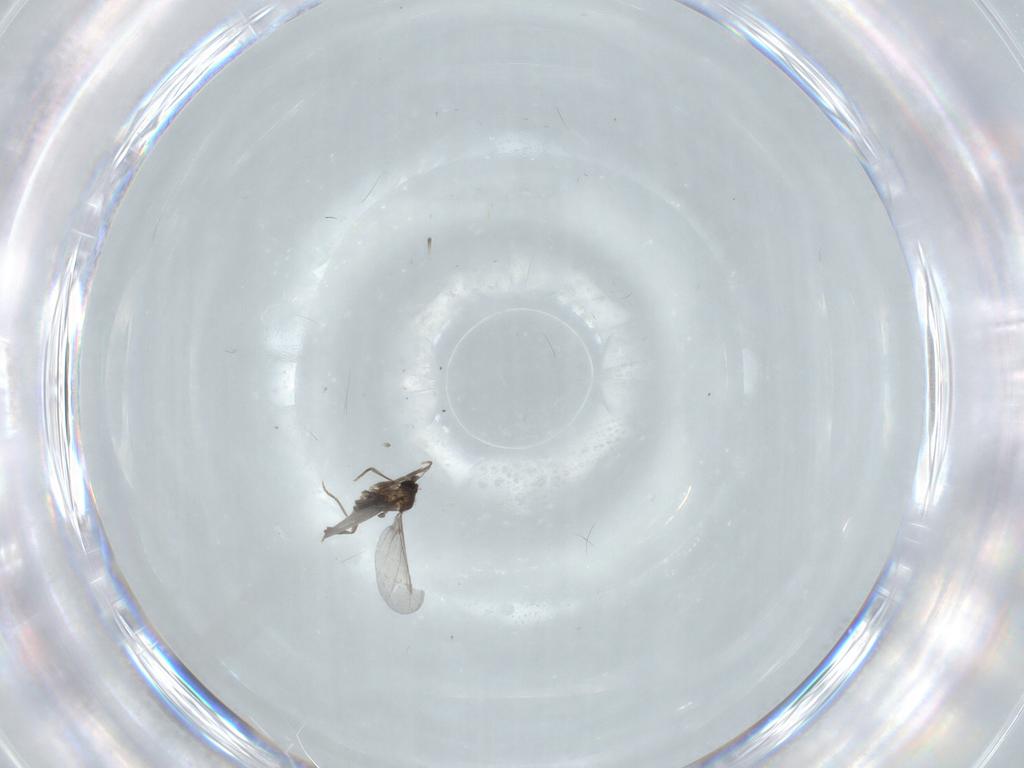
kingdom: Animalia
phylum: Arthropoda
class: Insecta
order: Diptera
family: Phoridae
